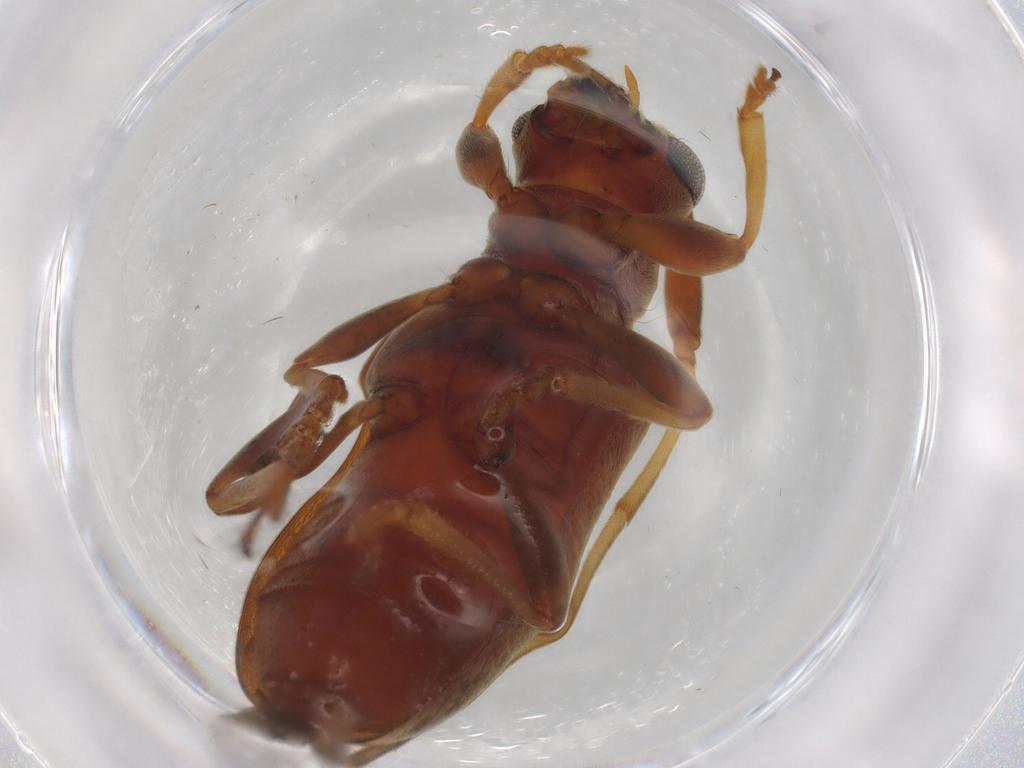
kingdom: Animalia
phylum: Arthropoda
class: Insecta
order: Coleoptera
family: Cerambycidae
